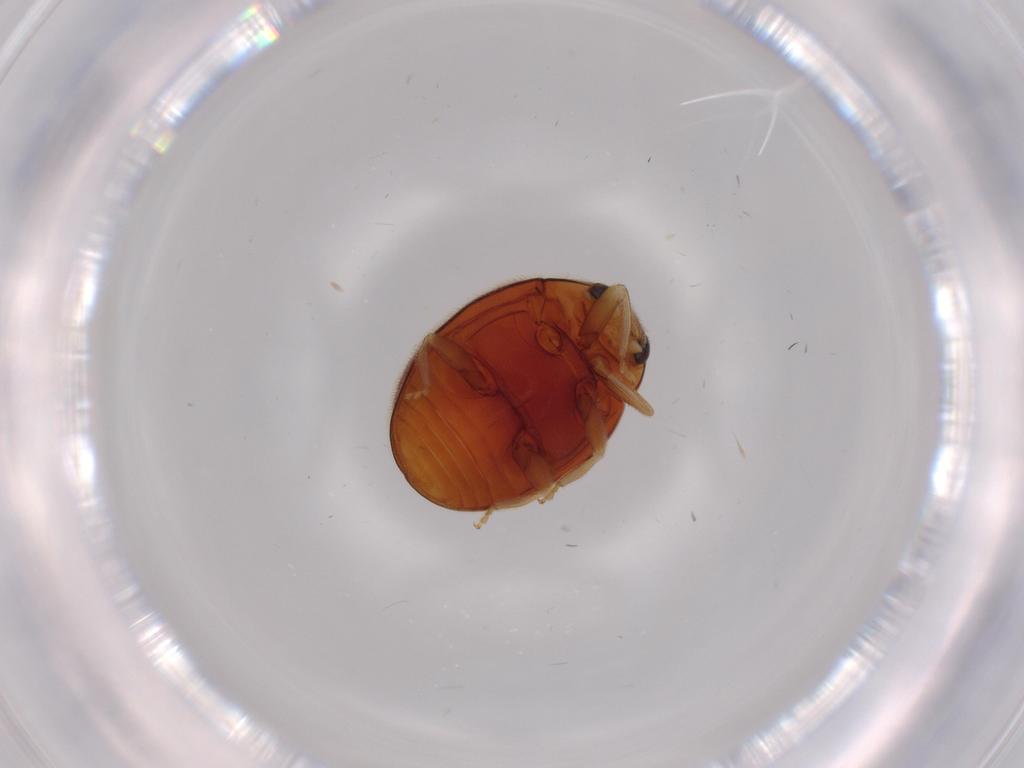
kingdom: Animalia
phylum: Arthropoda
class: Insecta
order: Coleoptera
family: Coccinellidae
